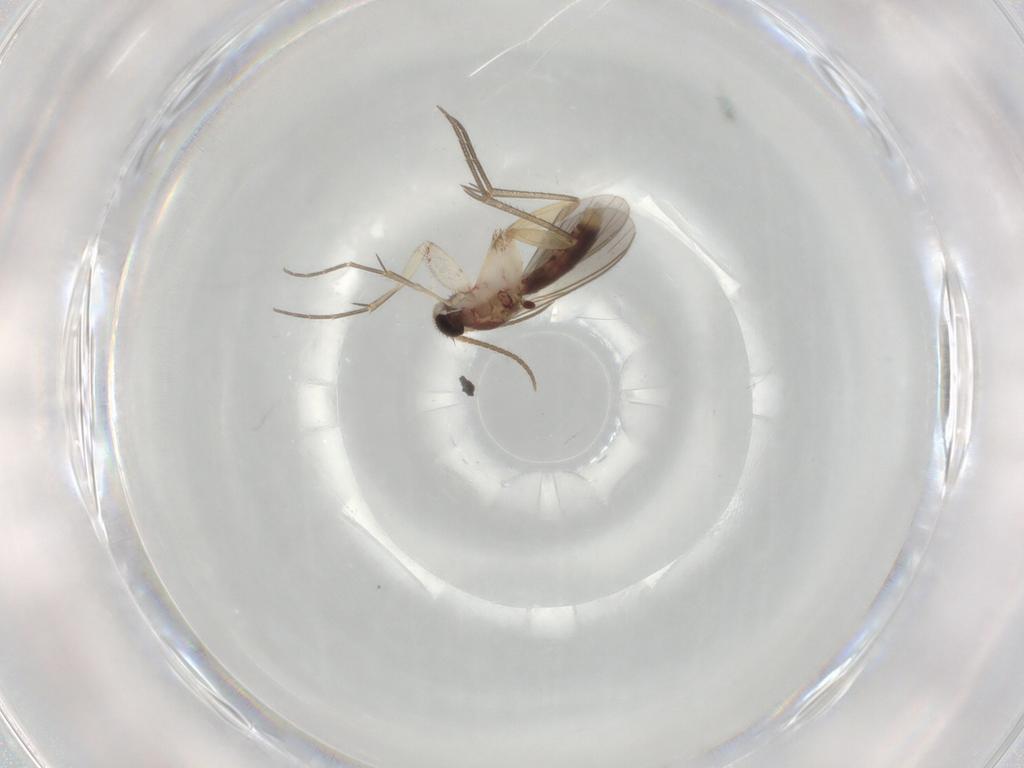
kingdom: Animalia
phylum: Arthropoda
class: Insecta
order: Diptera
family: Mycetophilidae
